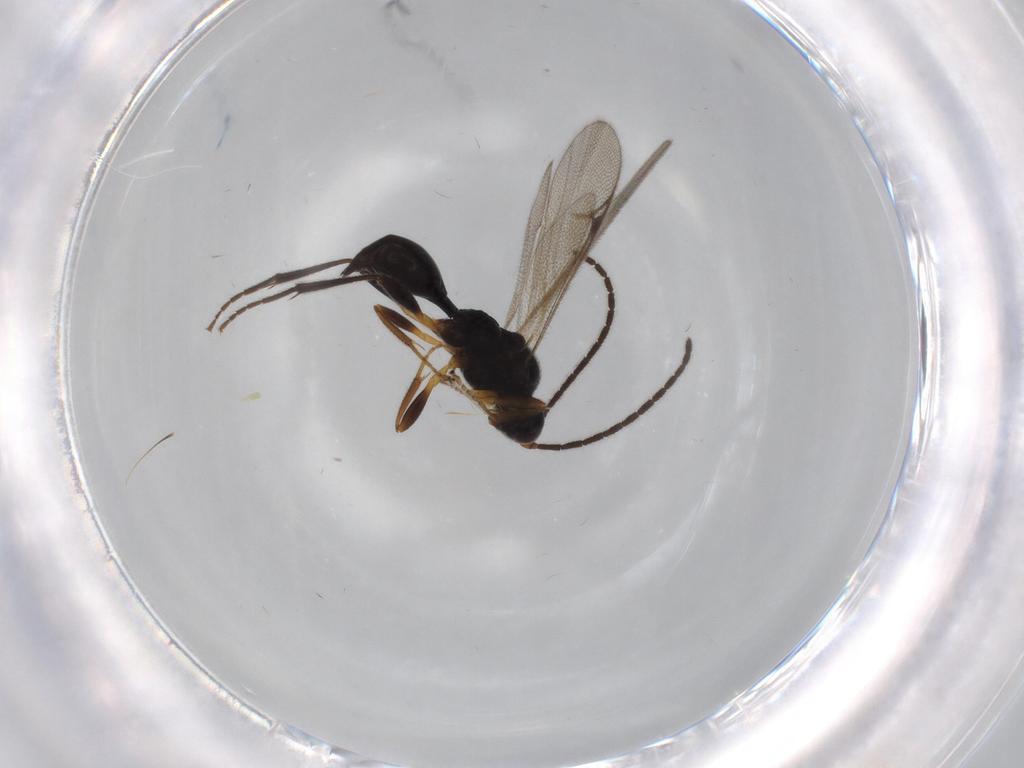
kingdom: Animalia
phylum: Arthropoda
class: Insecta
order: Hymenoptera
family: Proctotrupidae
